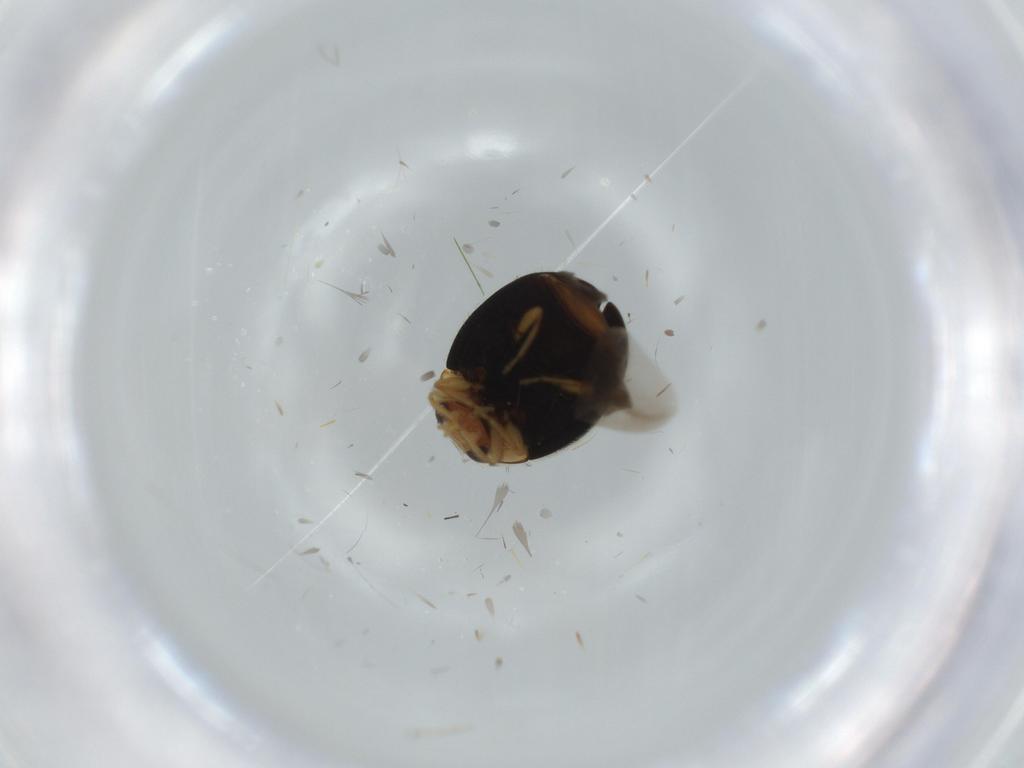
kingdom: Animalia
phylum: Arthropoda
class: Insecta
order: Coleoptera
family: Coccinellidae
